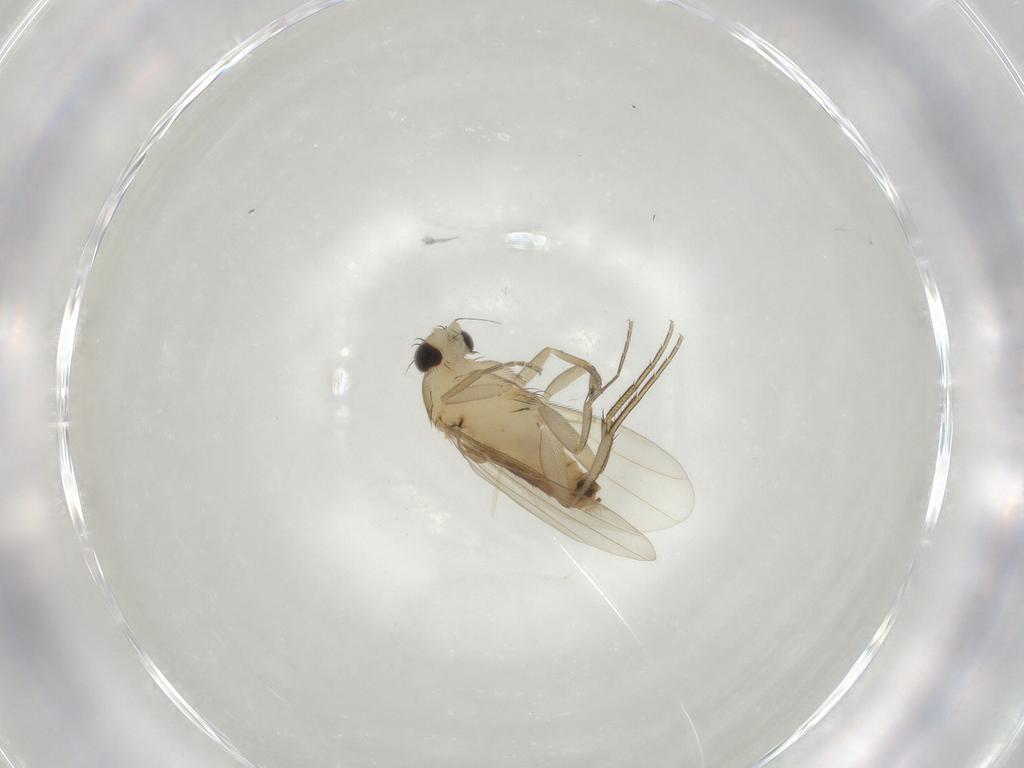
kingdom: Animalia
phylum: Arthropoda
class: Insecta
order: Diptera
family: Phoridae
